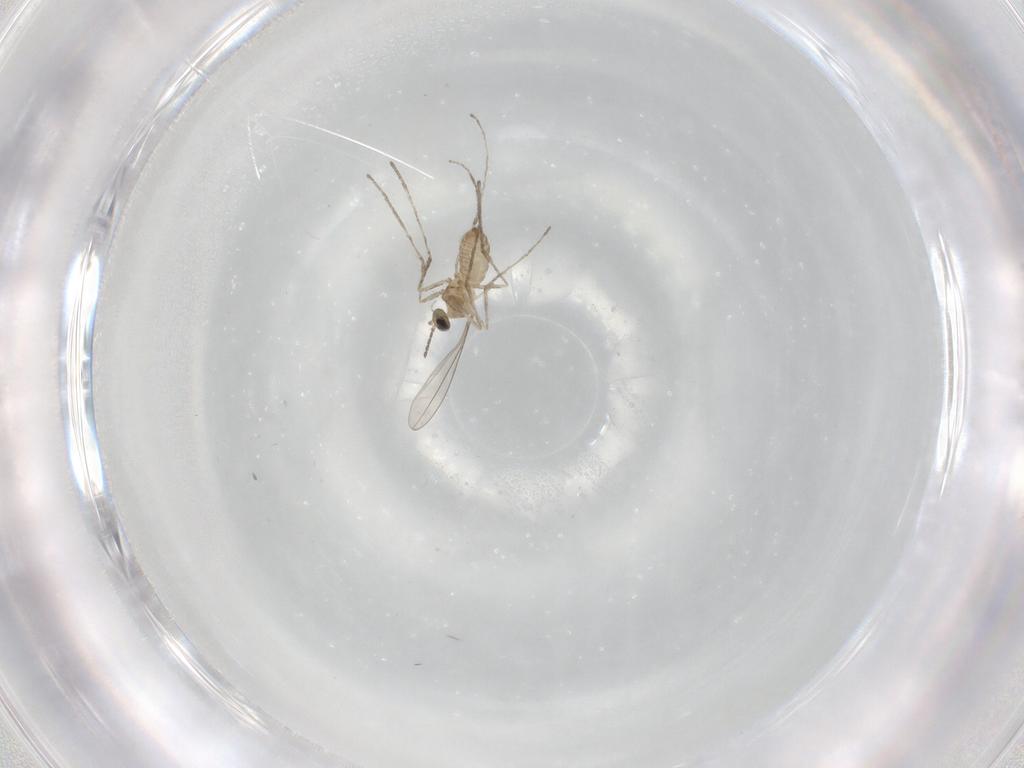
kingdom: Animalia
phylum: Arthropoda
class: Insecta
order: Diptera
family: Cecidomyiidae
